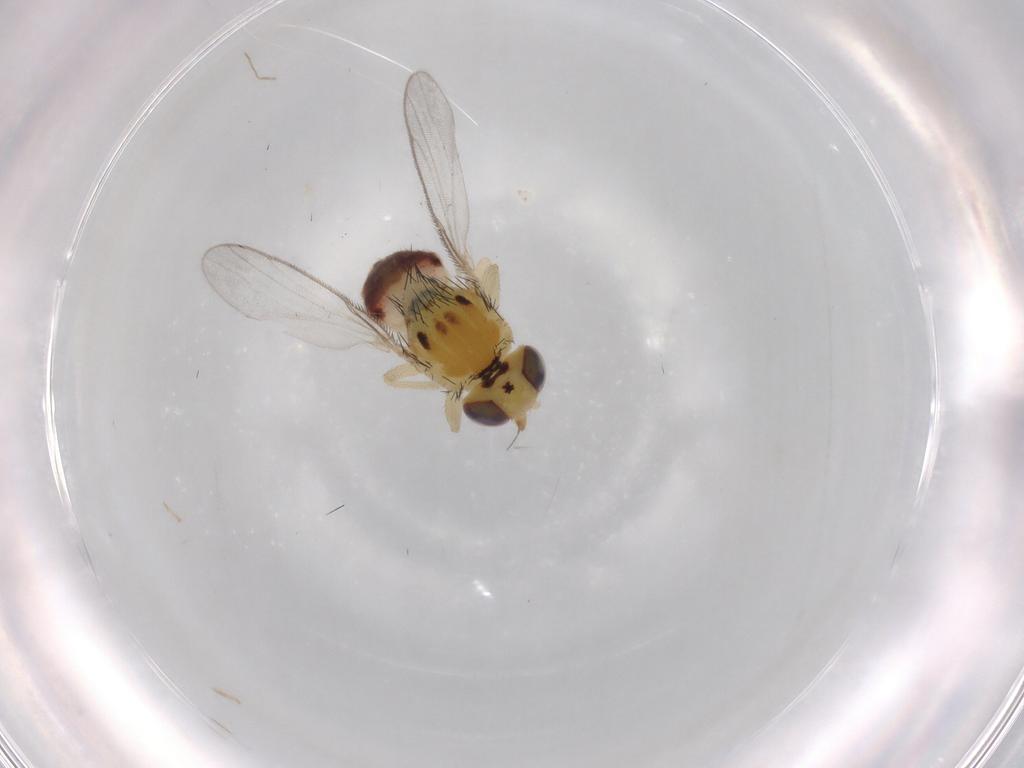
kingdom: Animalia
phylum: Arthropoda
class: Insecta
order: Diptera
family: Chloropidae
